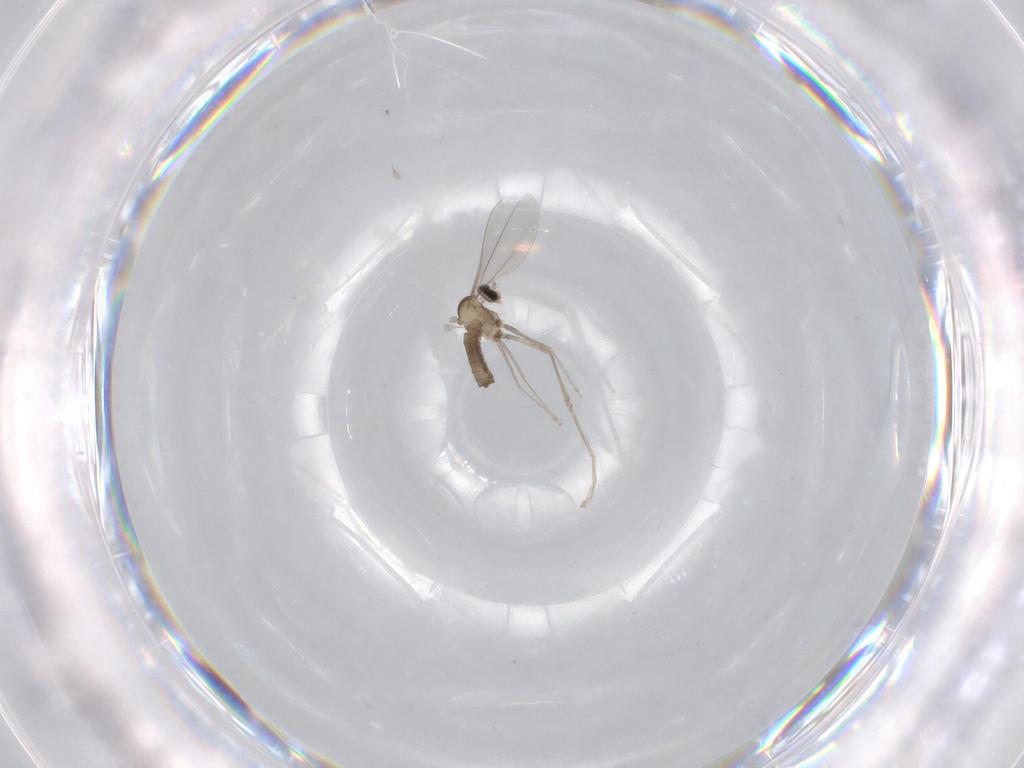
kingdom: Animalia
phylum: Arthropoda
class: Insecta
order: Diptera
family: Cecidomyiidae
